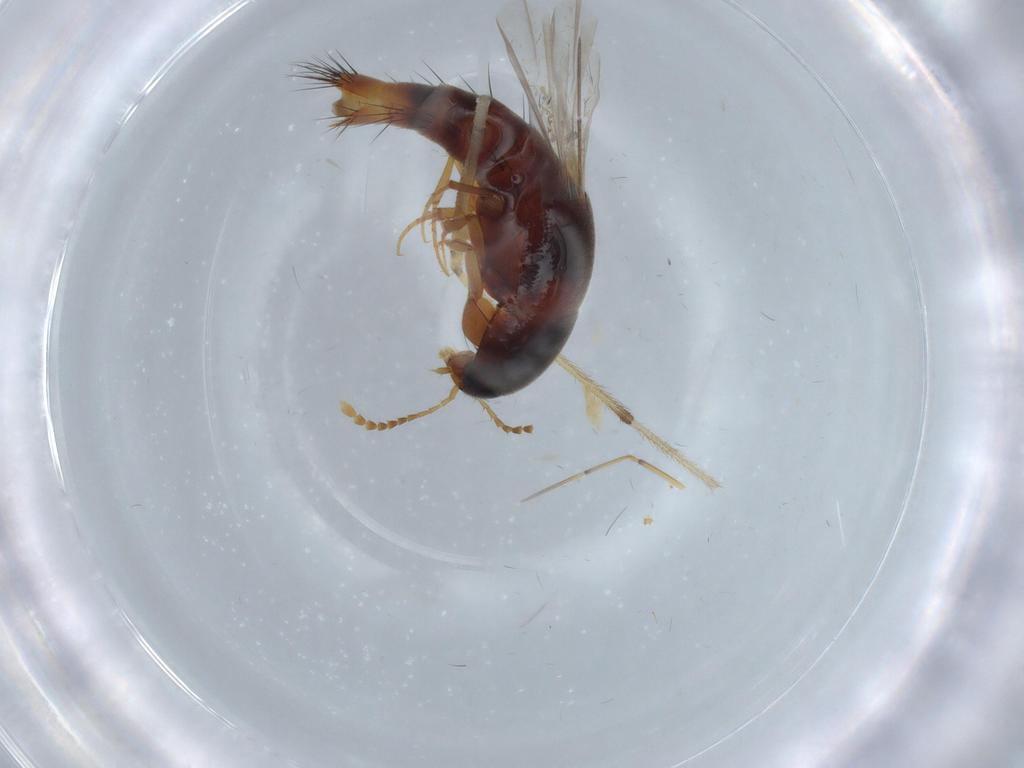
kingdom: Animalia
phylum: Arthropoda
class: Insecta
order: Coleoptera
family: Staphylinidae
